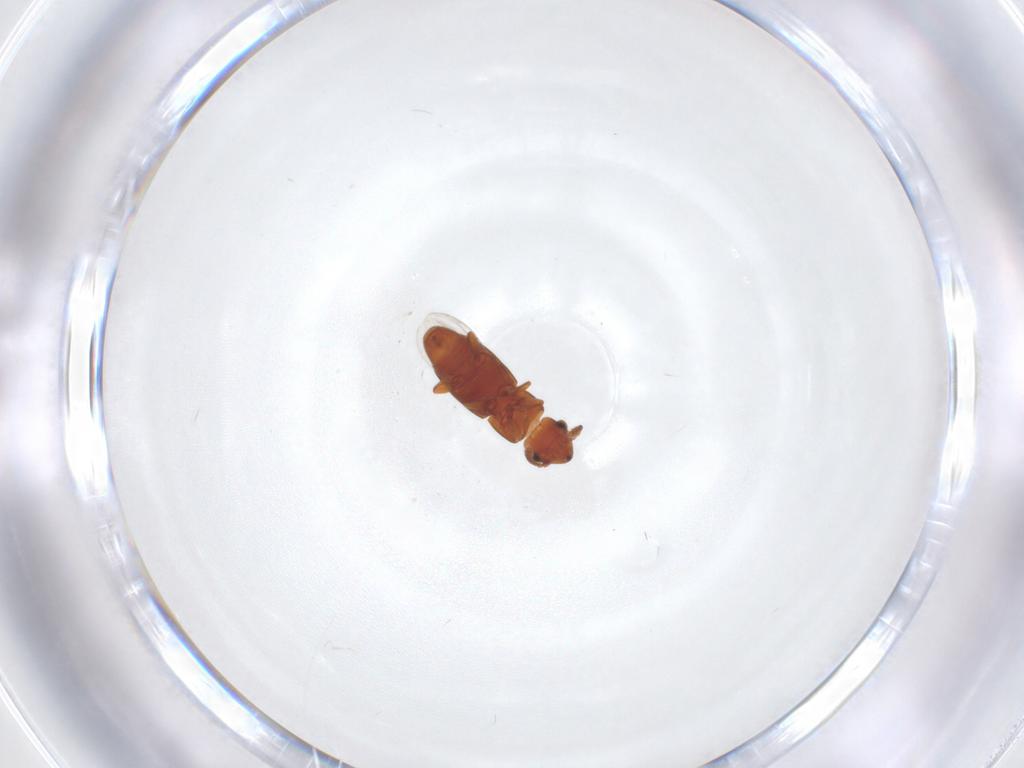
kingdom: Animalia
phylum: Arthropoda
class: Insecta
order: Coleoptera
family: Smicripidae
